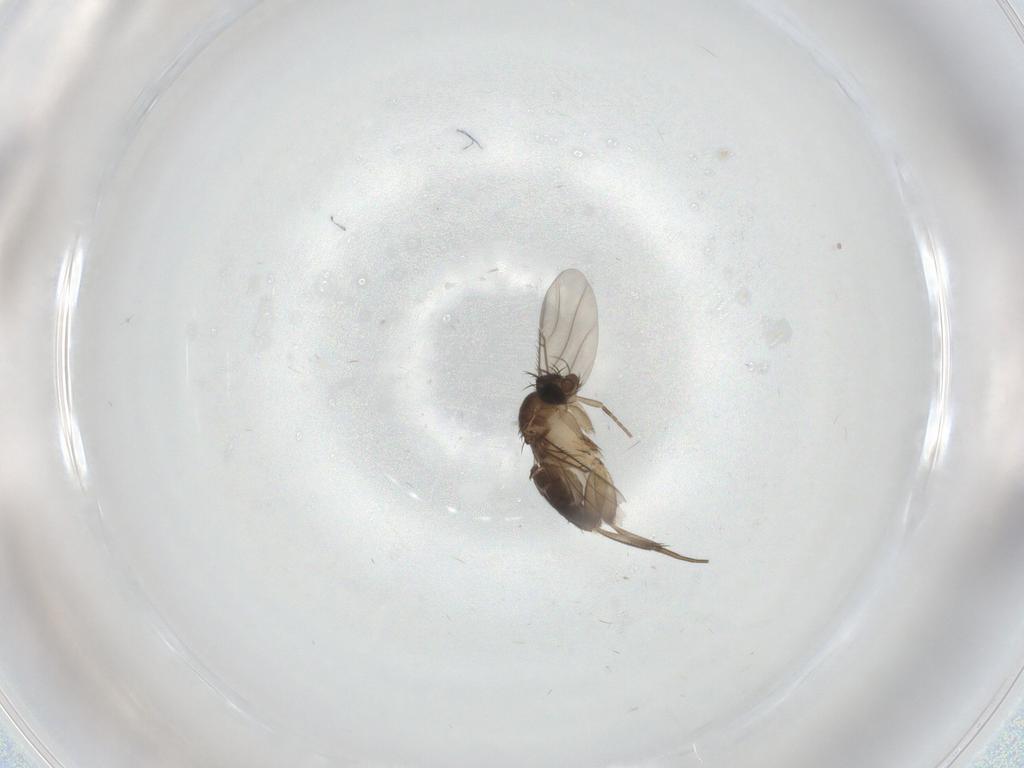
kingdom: Animalia
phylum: Arthropoda
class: Insecta
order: Diptera
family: Phoridae
